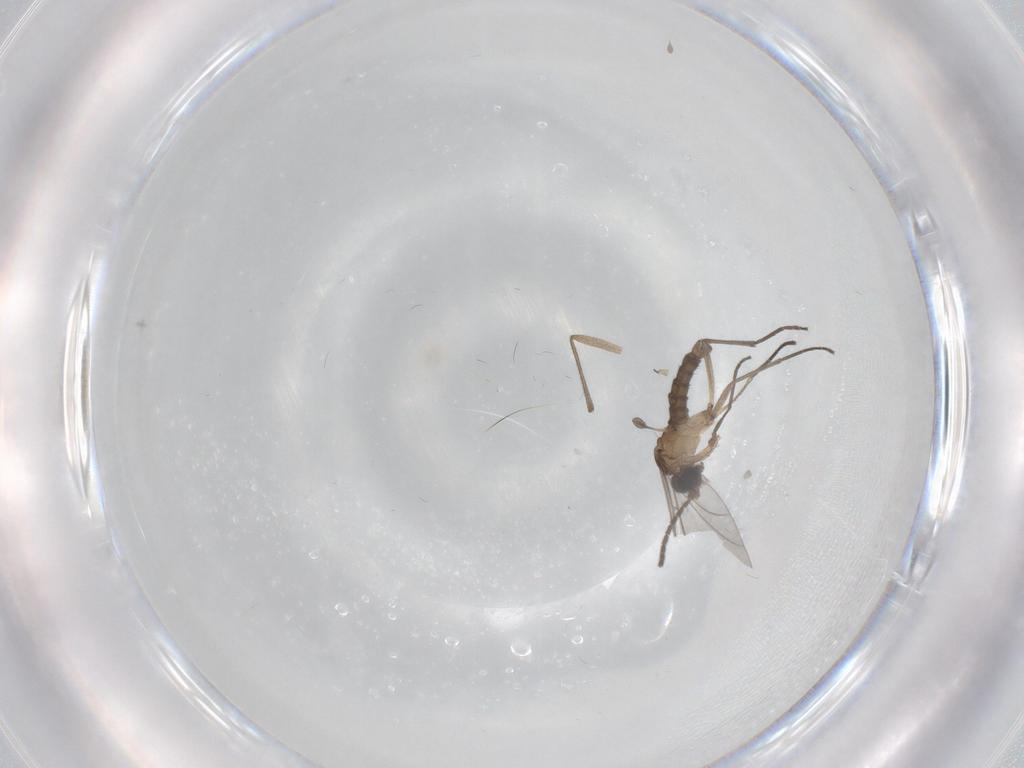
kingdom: Animalia
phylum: Arthropoda
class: Insecta
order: Diptera
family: Sciaridae
